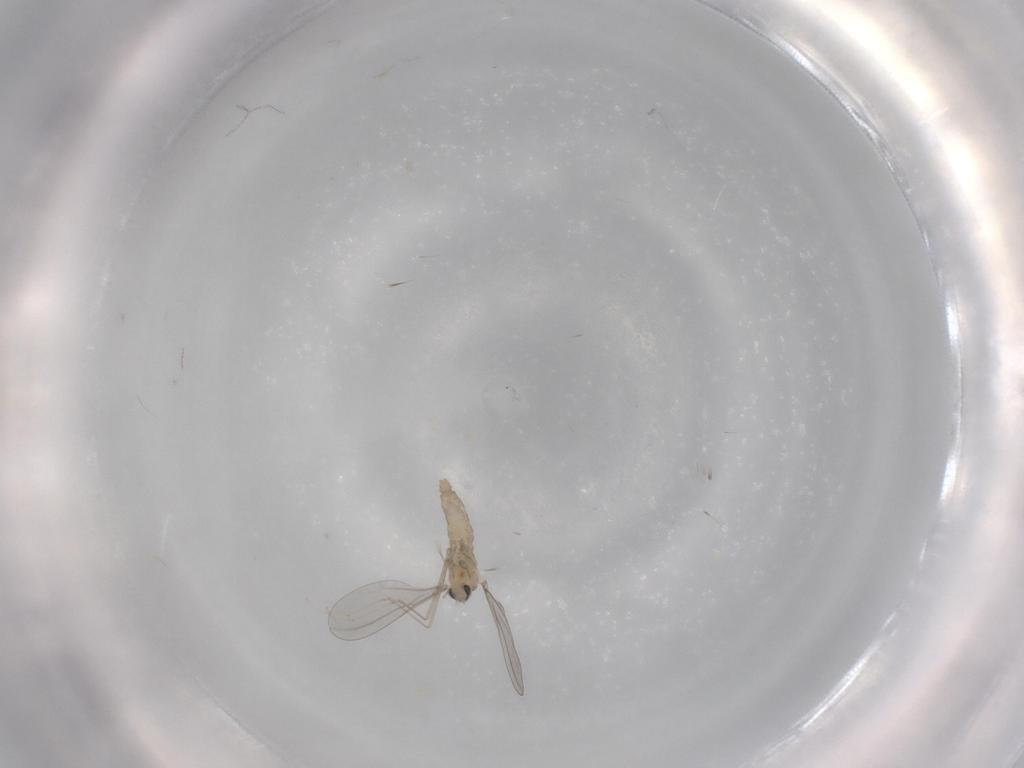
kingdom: Animalia
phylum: Arthropoda
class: Insecta
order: Diptera
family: Cecidomyiidae
